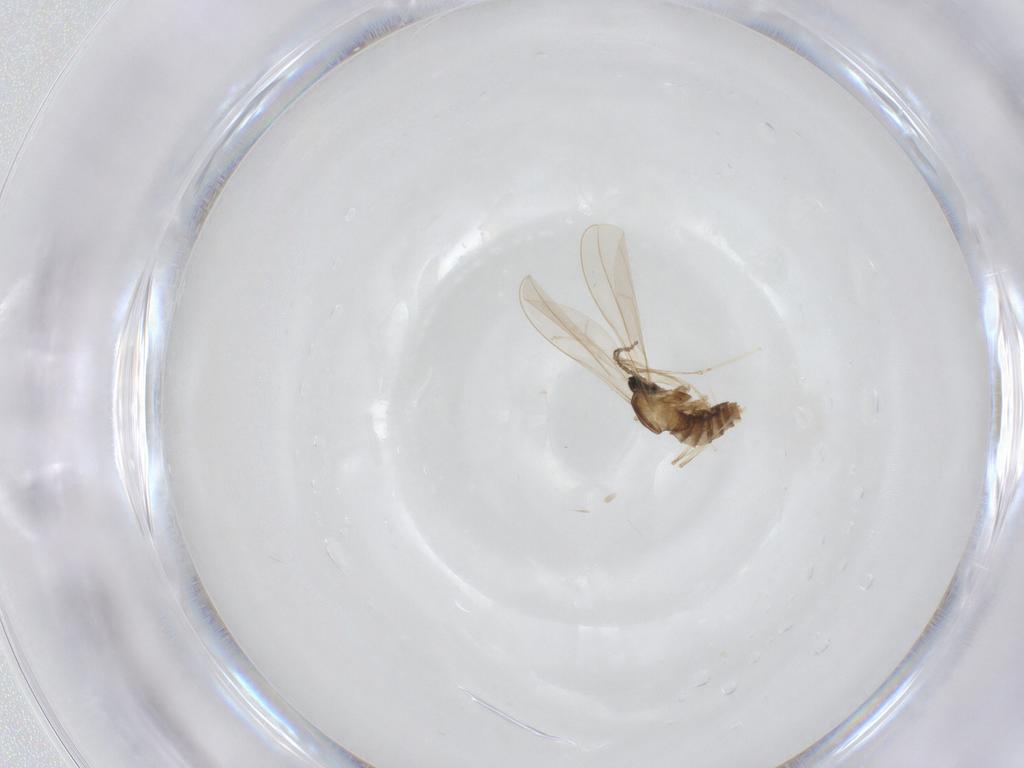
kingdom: Animalia
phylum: Arthropoda
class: Insecta
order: Diptera
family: Cecidomyiidae
